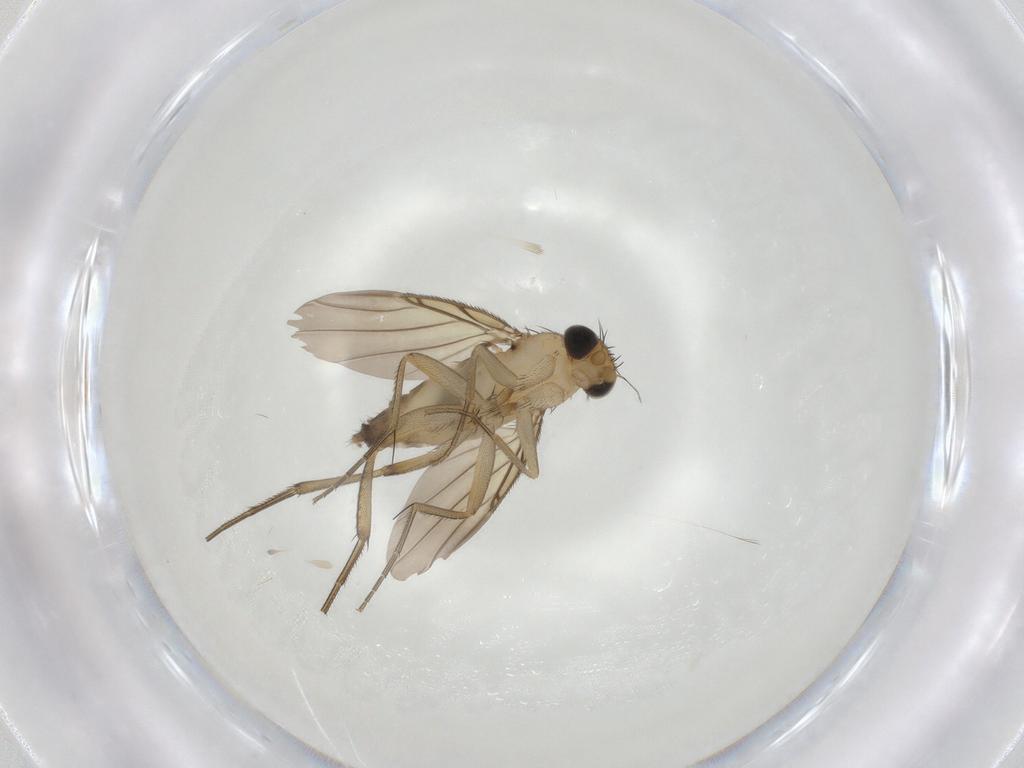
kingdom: Animalia
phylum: Arthropoda
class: Insecta
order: Diptera
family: Phoridae
